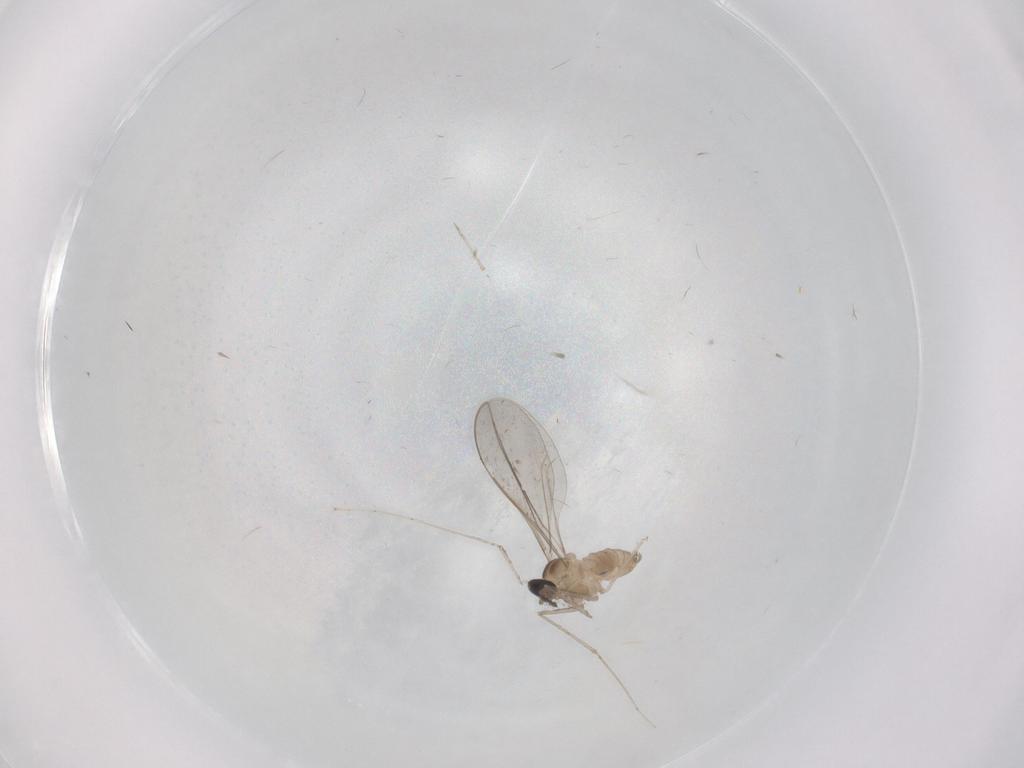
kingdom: Animalia
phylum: Arthropoda
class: Insecta
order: Diptera
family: Cecidomyiidae
